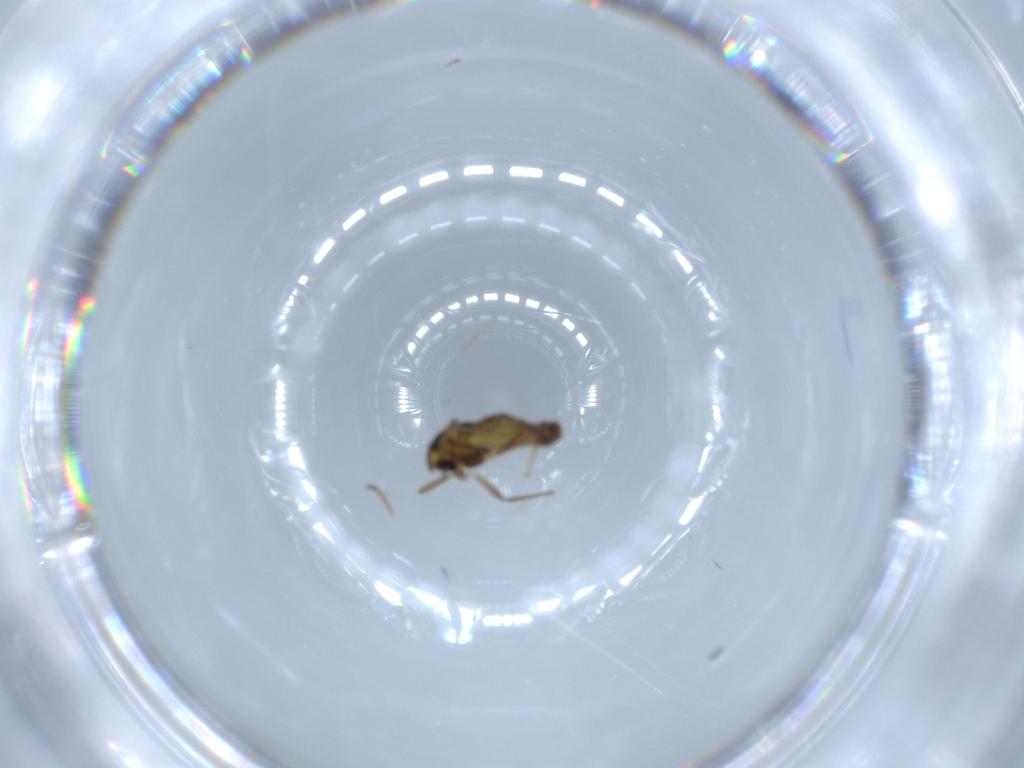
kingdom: Animalia
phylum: Arthropoda
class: Insecta
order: Diptera
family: Chironomidae
